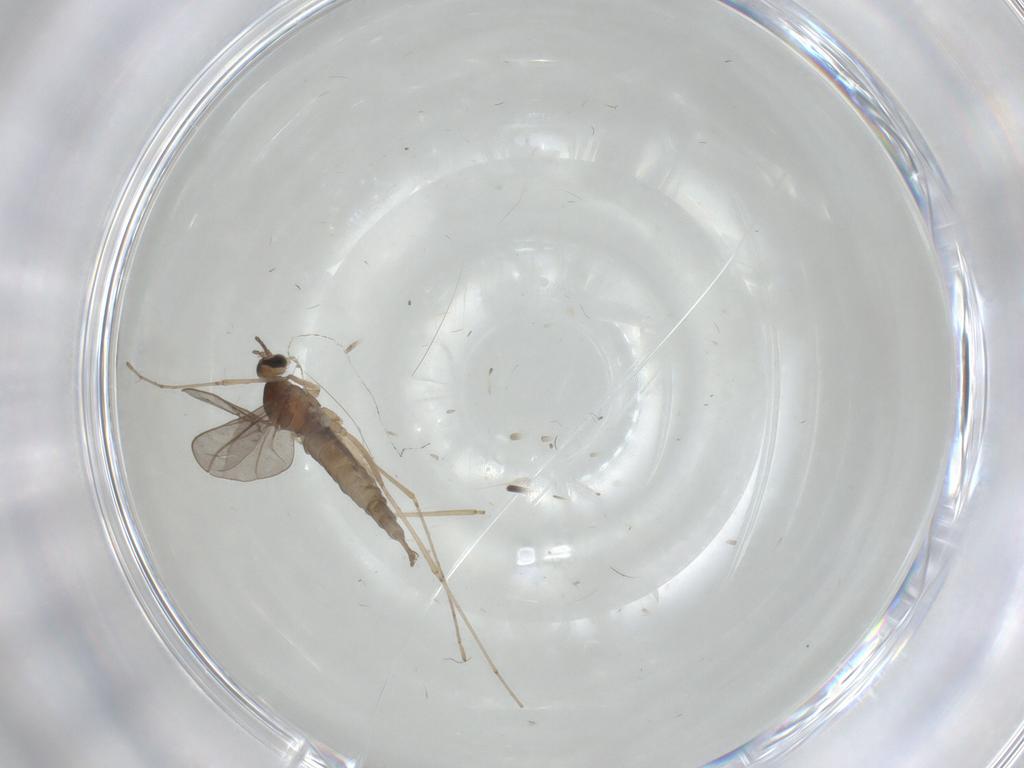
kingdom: Animalia
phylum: Arthropoda
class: Insecta
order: Diptera
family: Cecidomyiidae
